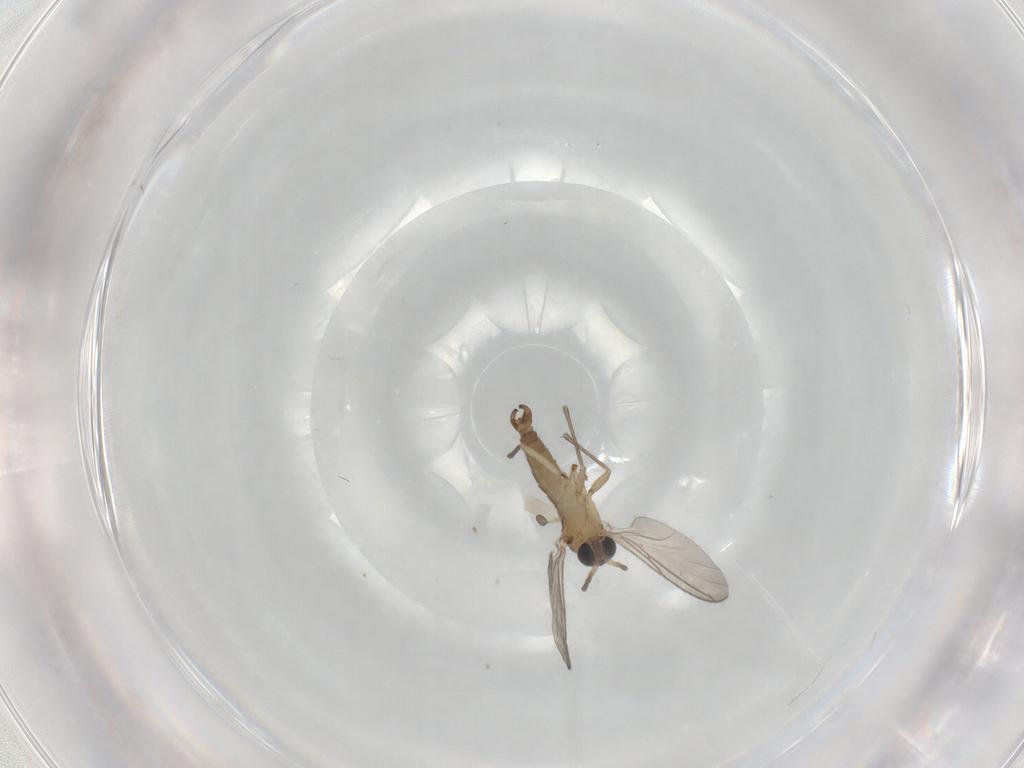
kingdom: Animalia
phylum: Arthropoda
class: Insecta
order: Diptera
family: Sciaridae
